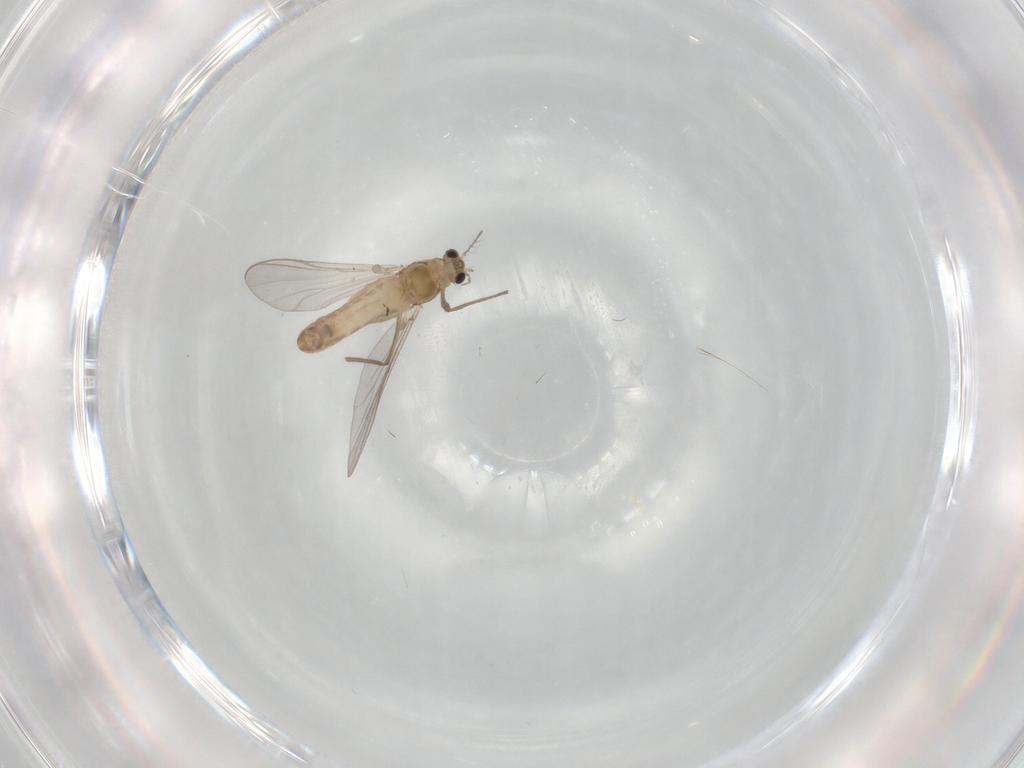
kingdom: Animalia
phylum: Arthropoda
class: Insecta
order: Diptera
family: Chironomidae
